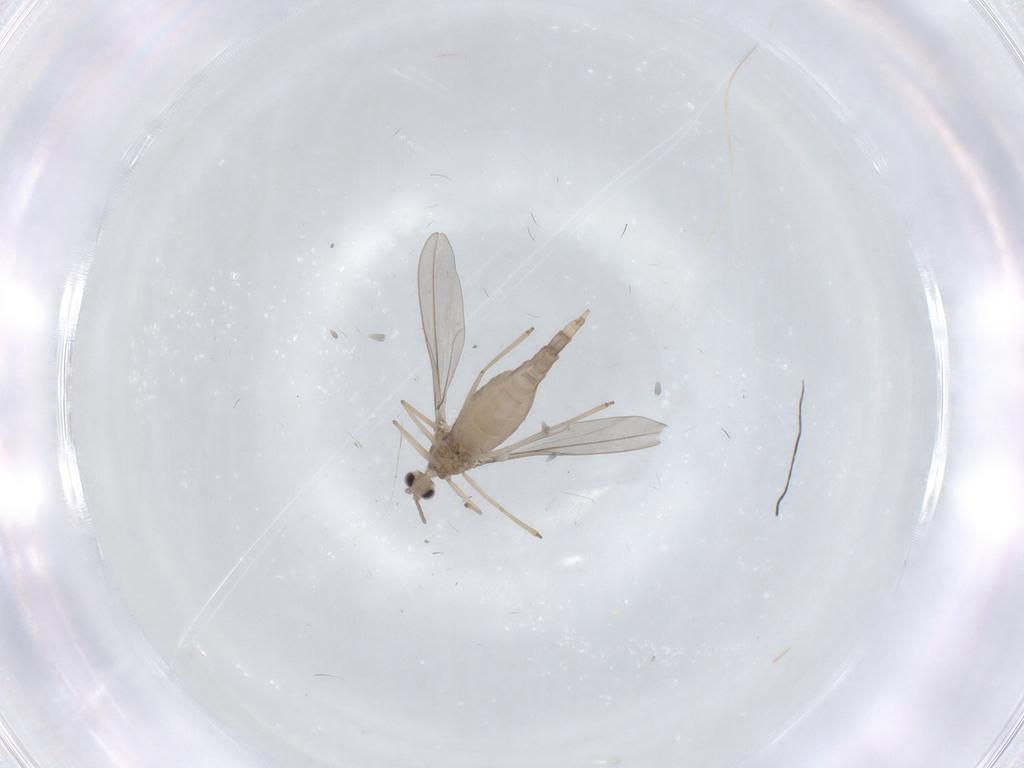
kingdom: Animalia
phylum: Arthropoda
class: Insecta
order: Diptera
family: Cecidomyiidae
